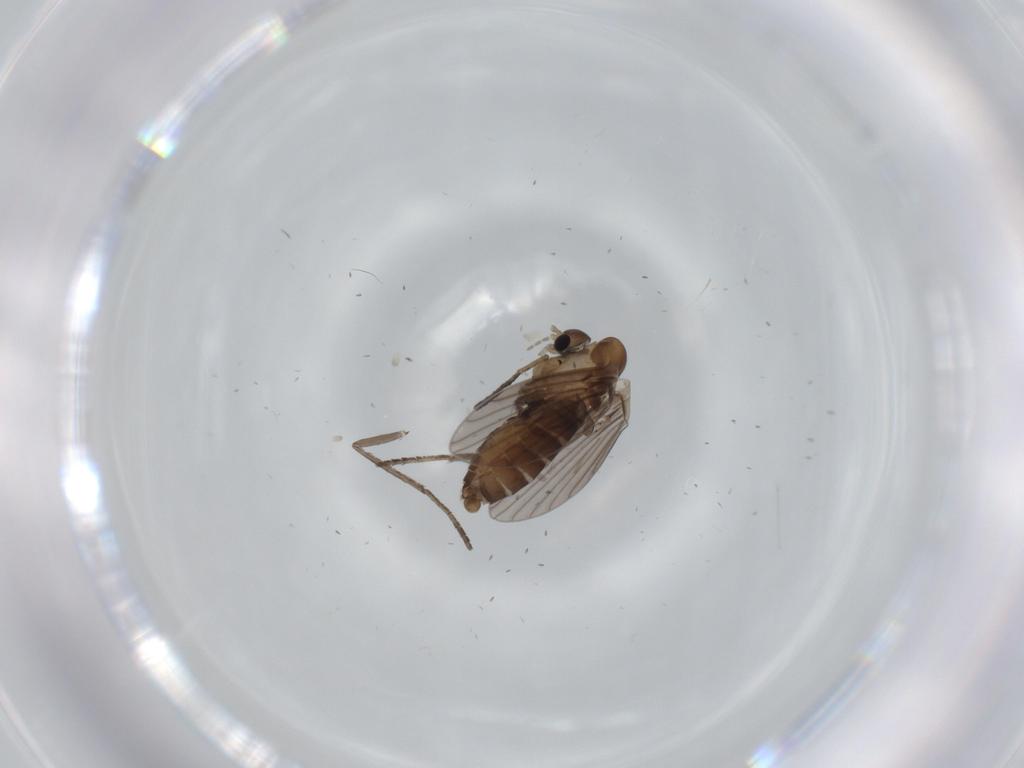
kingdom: Animalia
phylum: Arthropoda
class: Insecta
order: Diptera
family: Psychodidae
